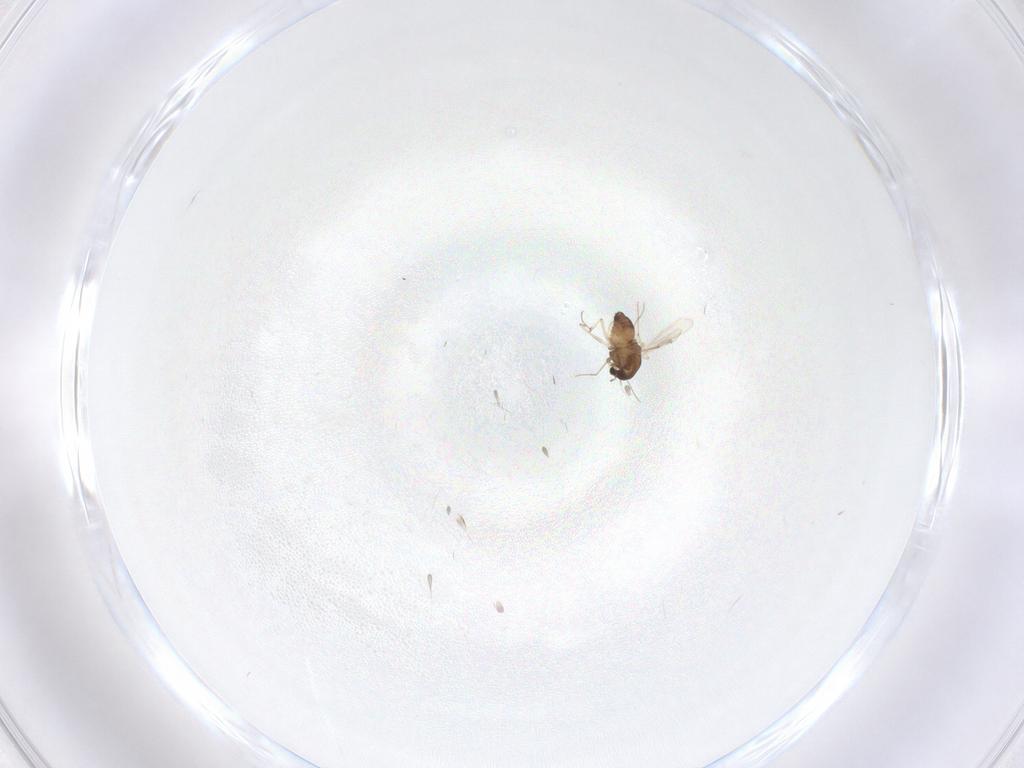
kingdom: Animalia
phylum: Arthropoda
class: Insecta
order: Diptera
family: Chironomidae
